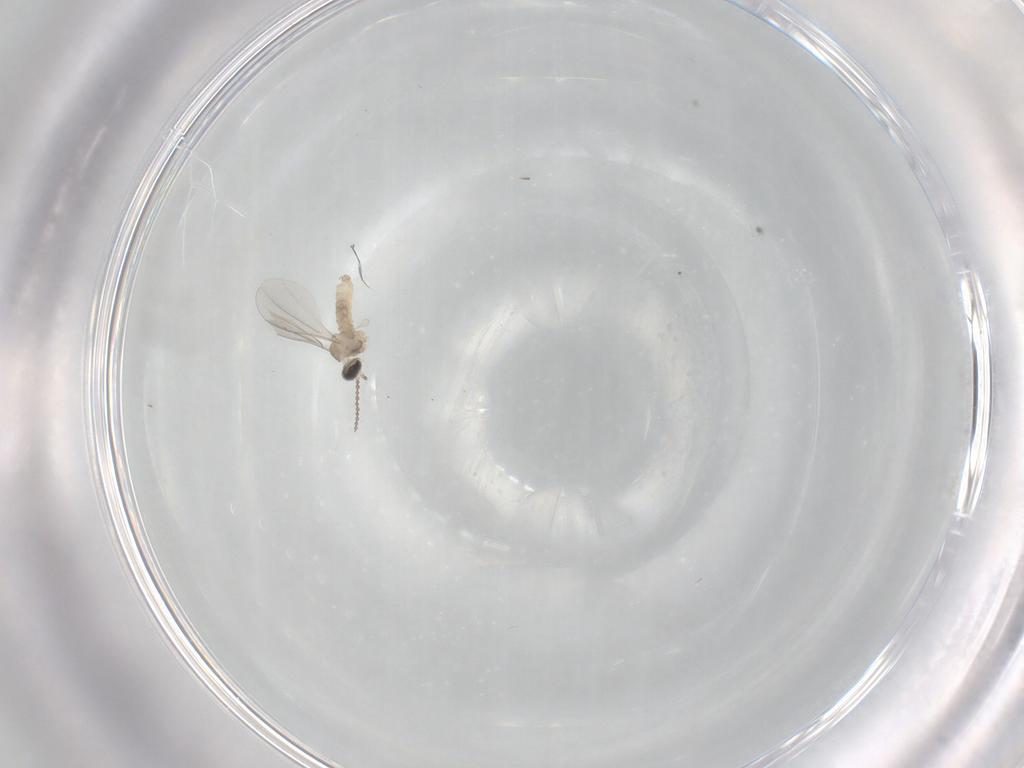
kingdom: Animalia
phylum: Arthropoda
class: Insecta
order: Diptera
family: Cecidomyiidae
